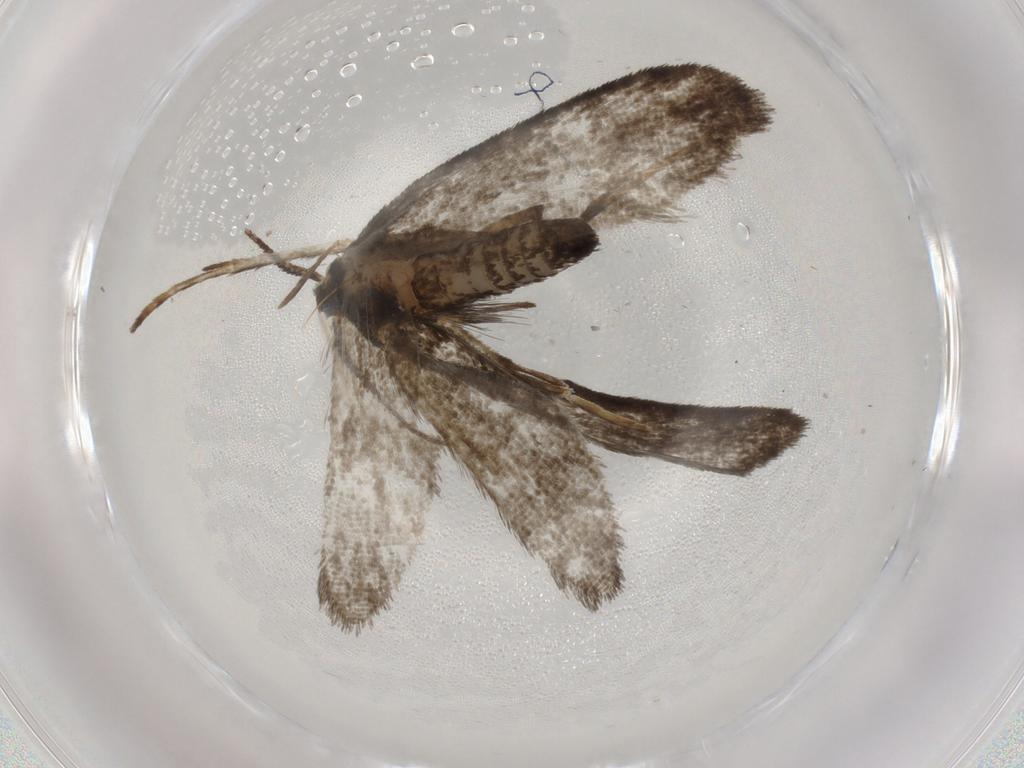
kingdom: Animalia
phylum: Arthropoda
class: Insecta
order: Lepidoptera
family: Psychidae
